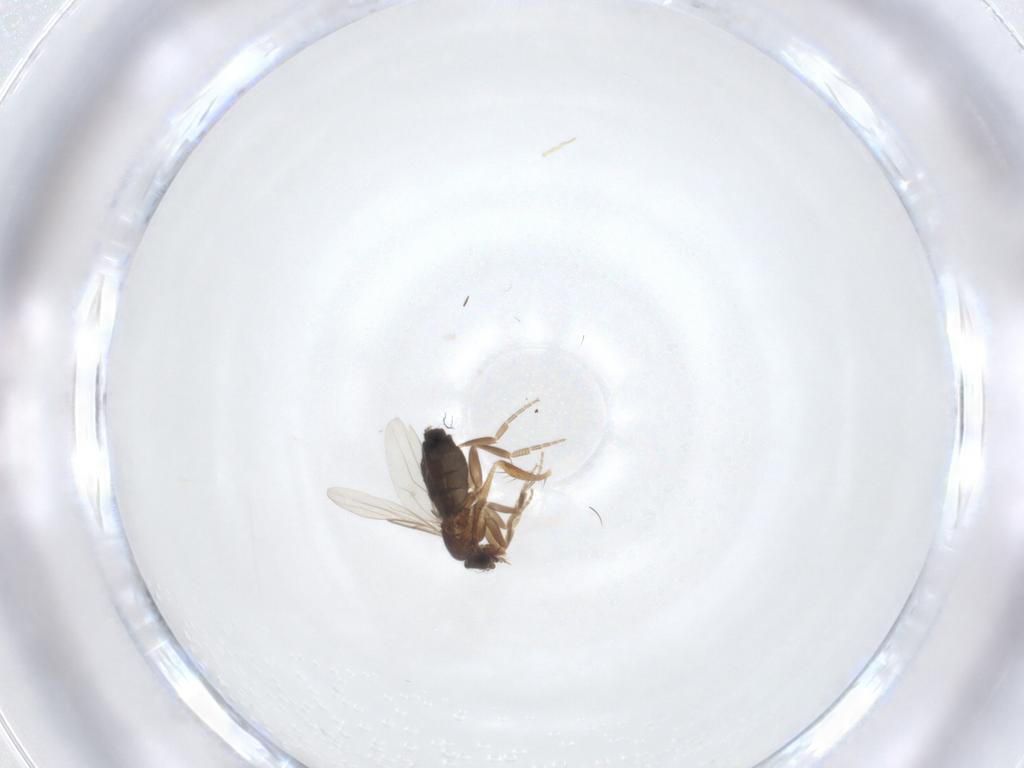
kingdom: Animalia
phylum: Arthropoda
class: Insecta
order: Diptera
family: Phoridae
